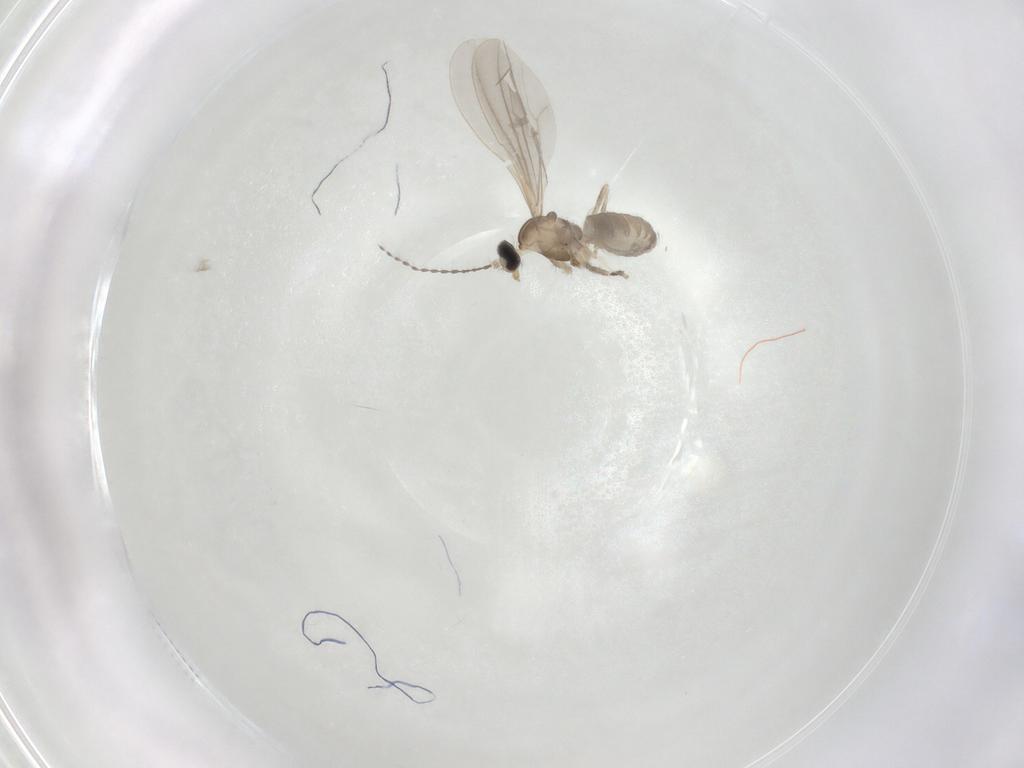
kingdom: Animalia
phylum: Arthropoda
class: Insecta
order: Diptera
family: Cecidomyiidae
